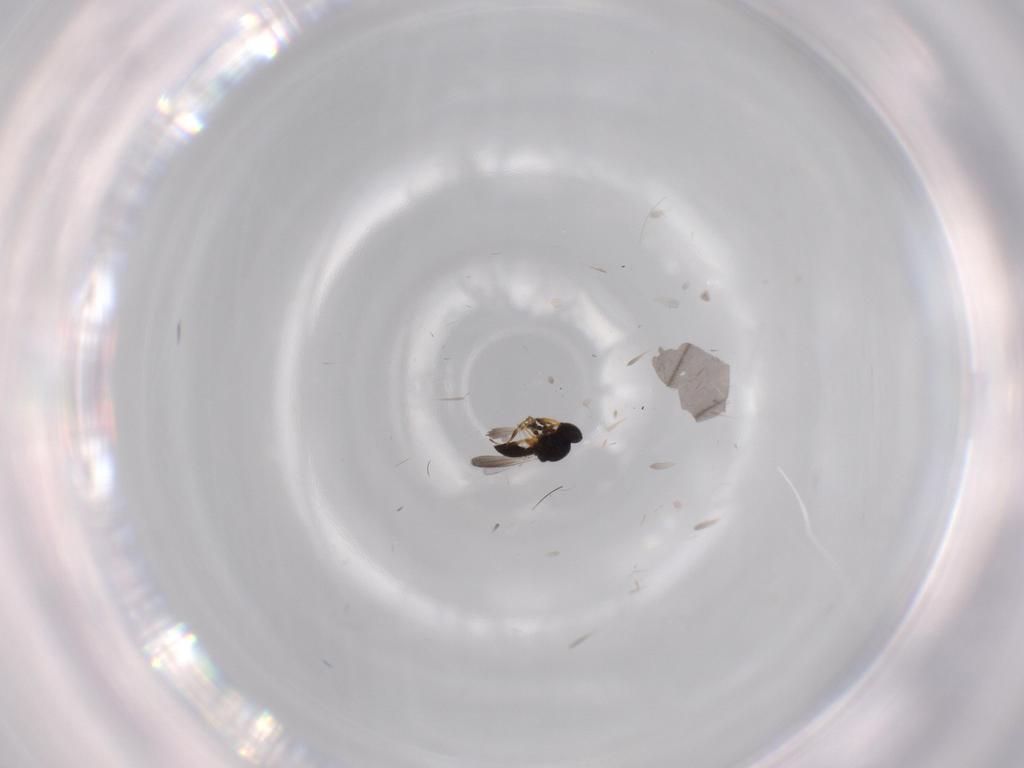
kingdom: Animalia
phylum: Arthropoda
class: Insecta
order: Hymenoptera
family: Platygastridae
